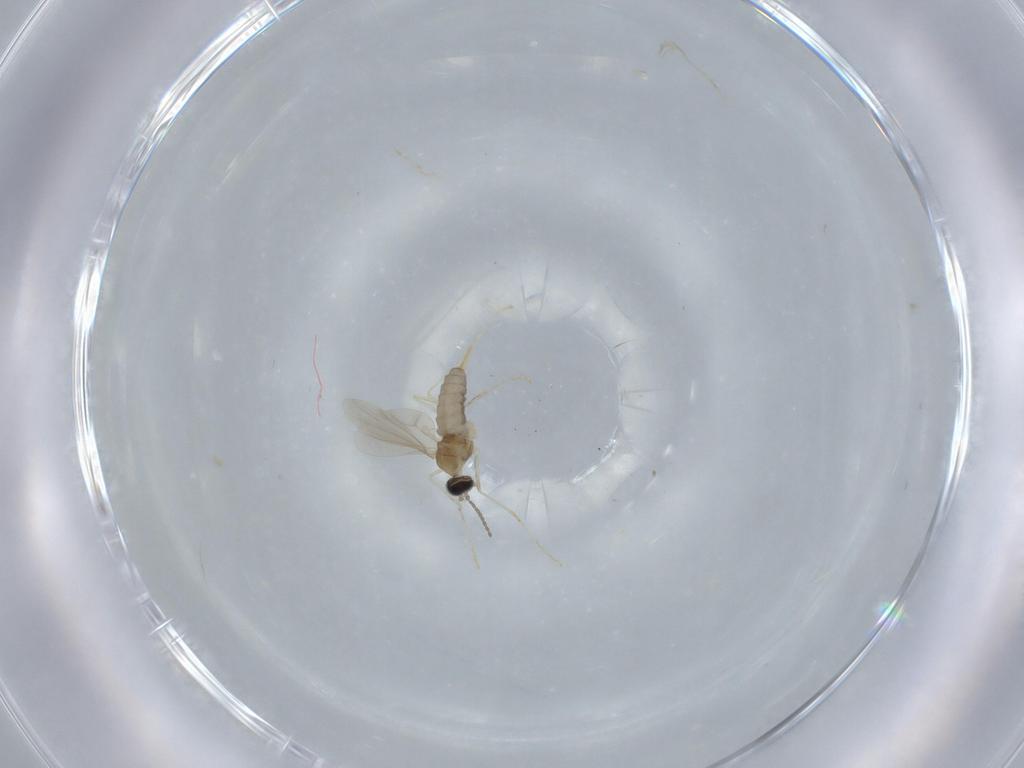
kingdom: Animalia
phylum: Arthropoda
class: Insecta
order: Diptera
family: Cecidomyiidae
